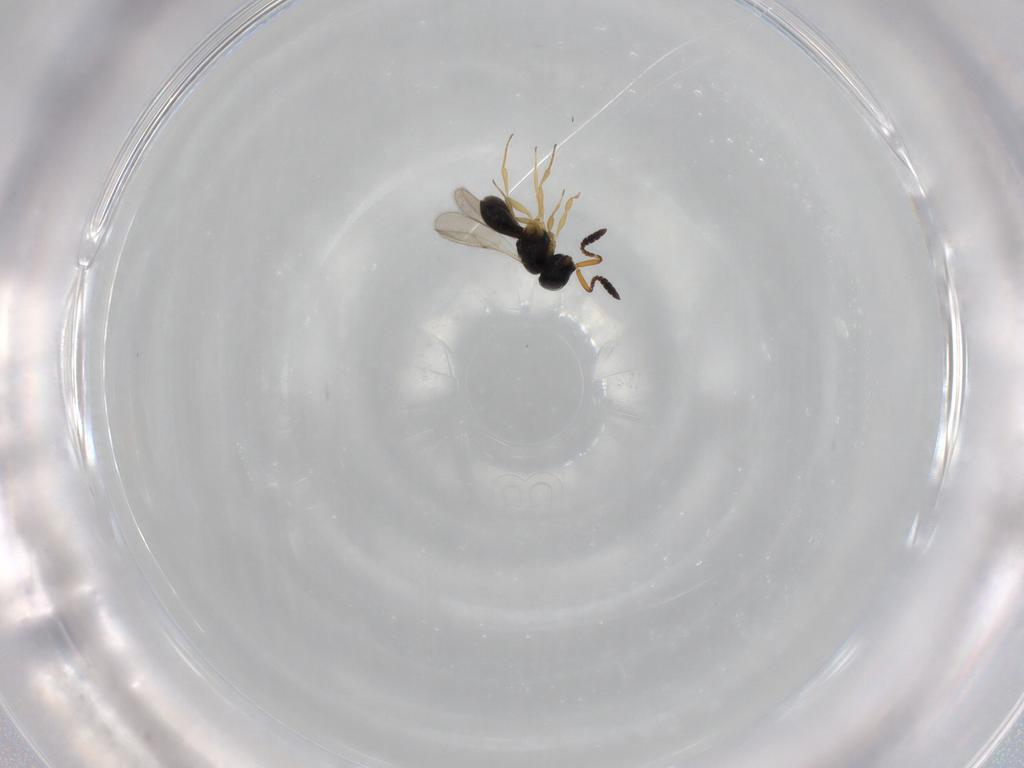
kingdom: Animalia
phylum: Arthropoda
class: Insecta
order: Hymenoptera
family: Scelionidae
